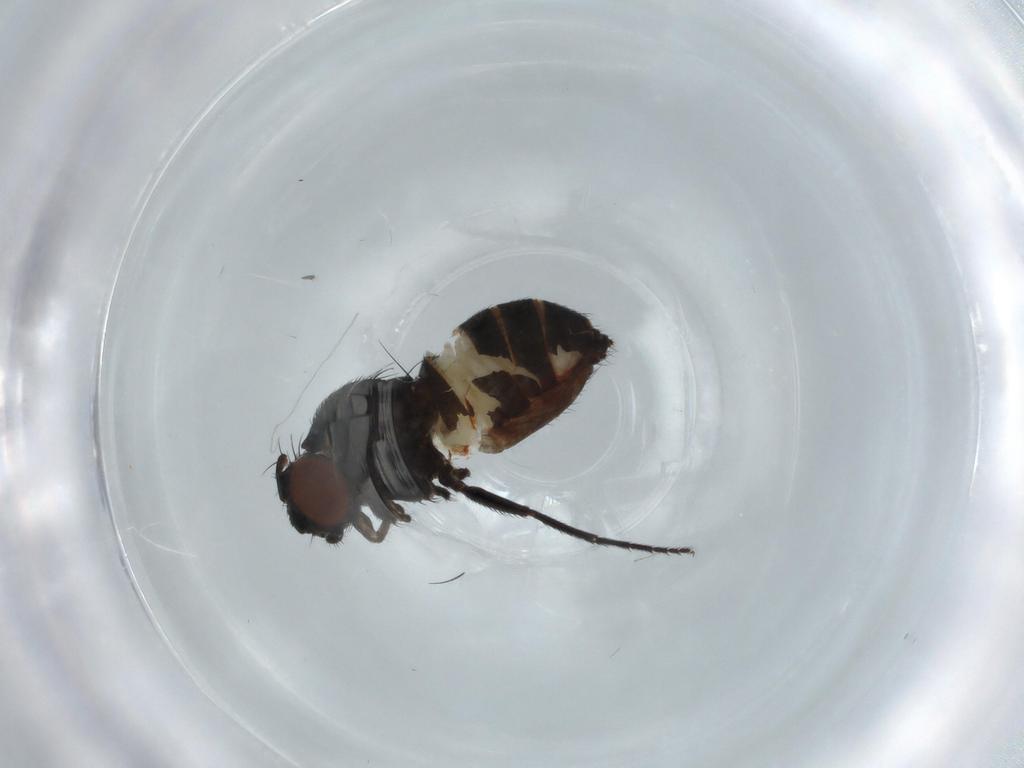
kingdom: Animalia
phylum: Arthropoda
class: Insecta
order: Diptera
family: Milichiidae
